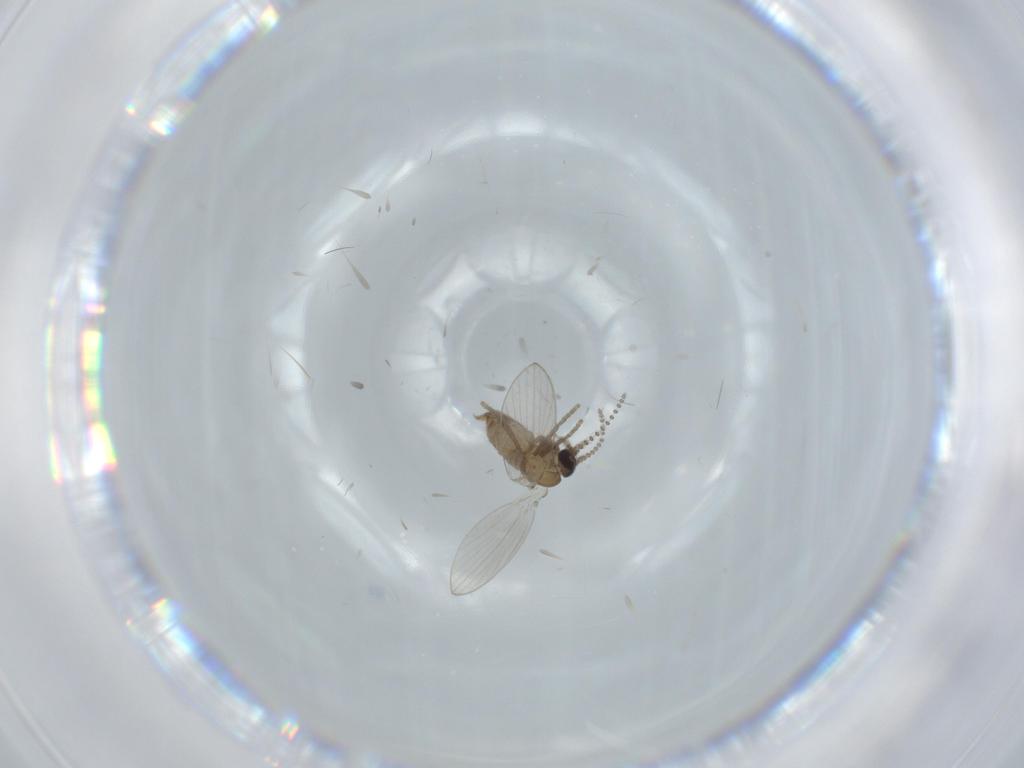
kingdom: Animalia
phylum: Arthropoda
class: Insecta
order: Diptera
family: Psychodidae
